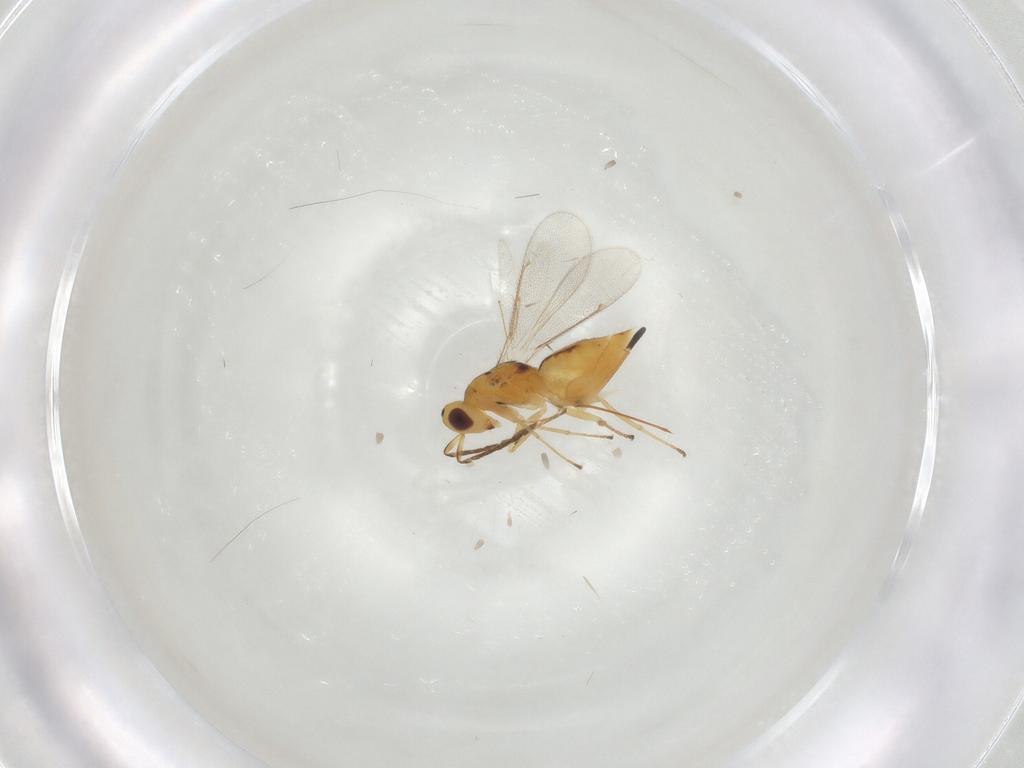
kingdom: Animalia
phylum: Arthropoda
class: Insecta
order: Hymenoptera
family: Eulophidae
